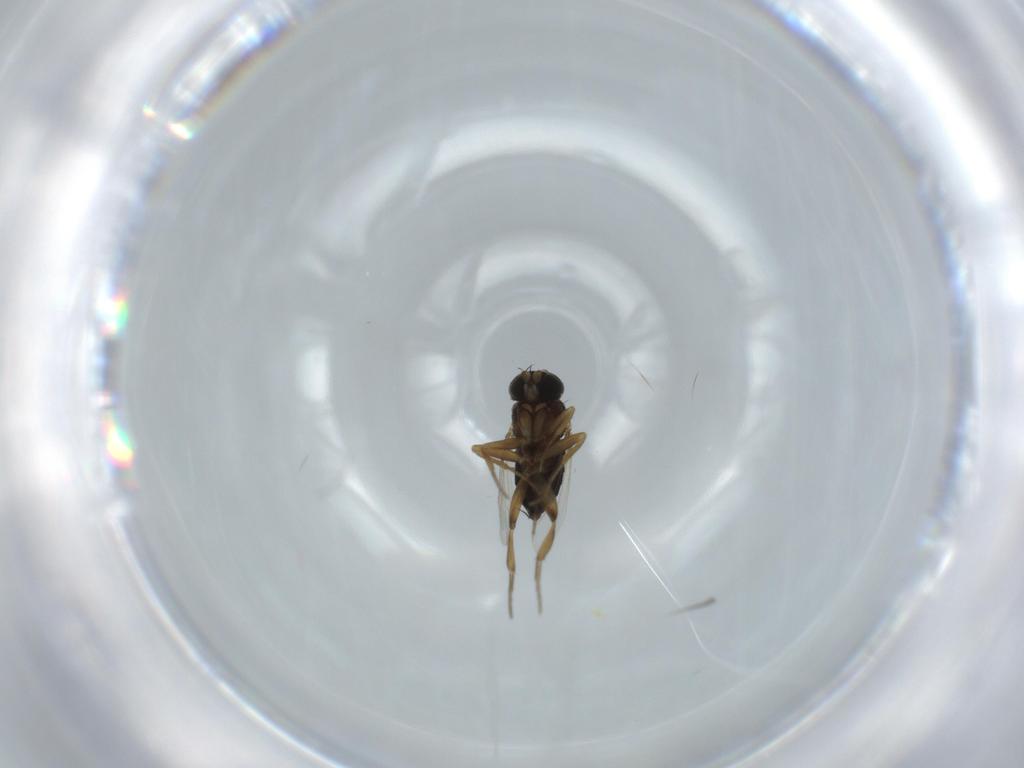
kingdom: Animalia
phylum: Arthropoda
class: Insecta
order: Diptera
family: Phoridae
